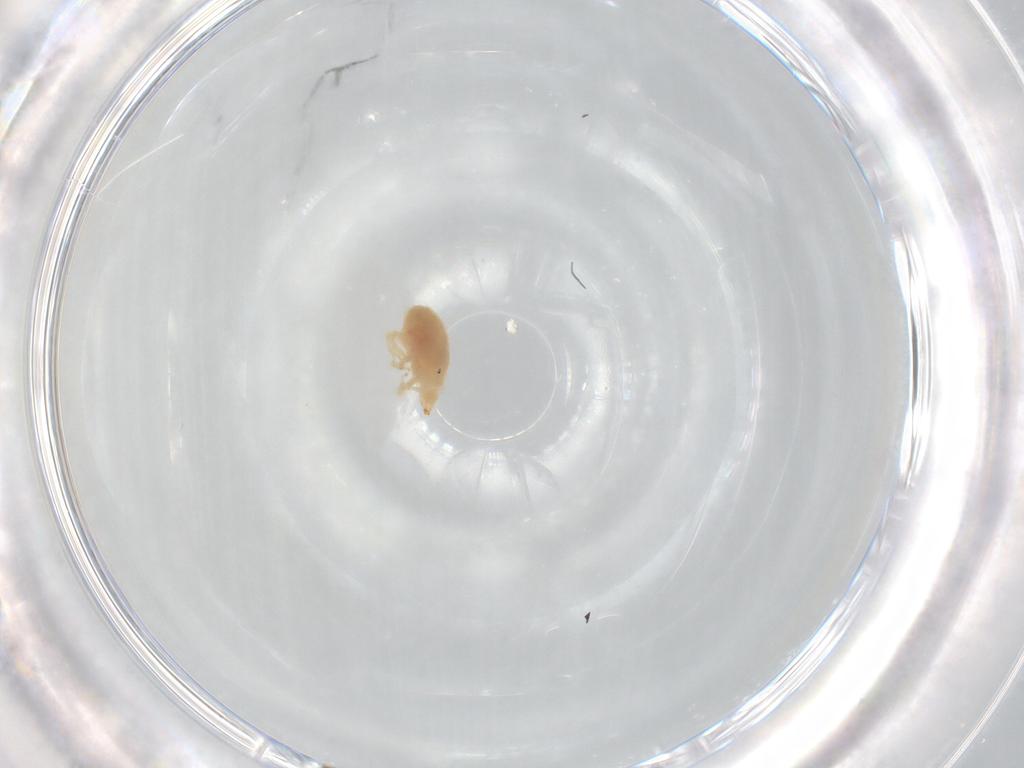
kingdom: Animalia
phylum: Arthropoda
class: Arachnida
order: Trombidiformes
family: Bdellidae
